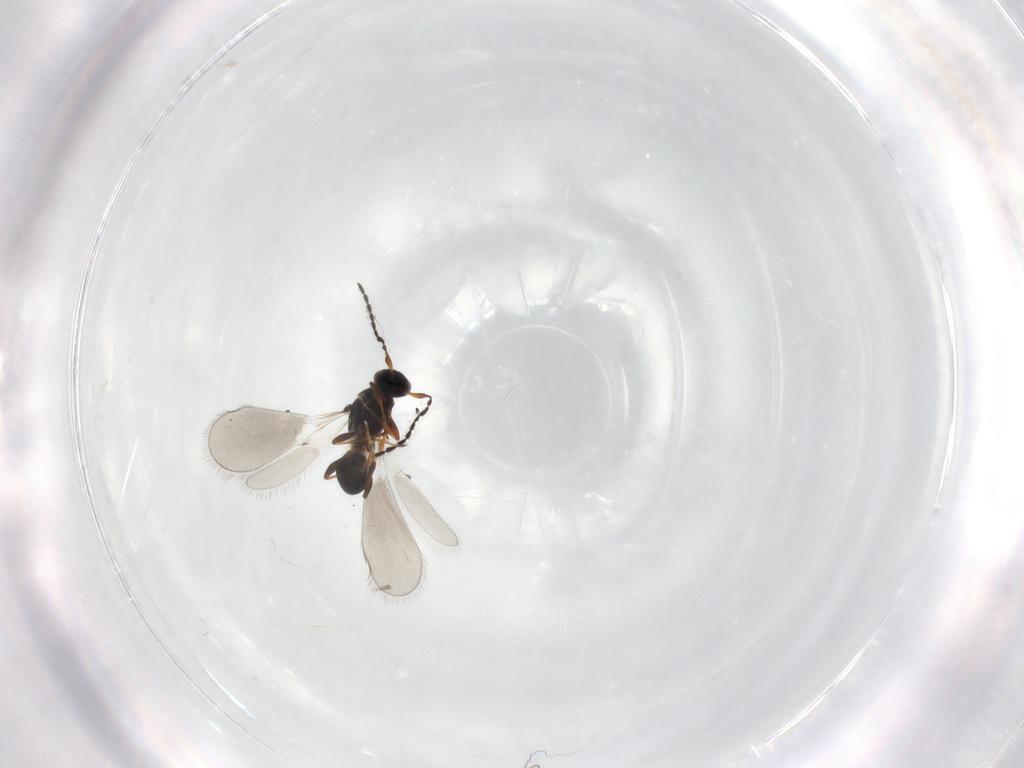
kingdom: Animalia
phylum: Arthropoda
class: Insecta
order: Hymenoptera
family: Platygastridae
